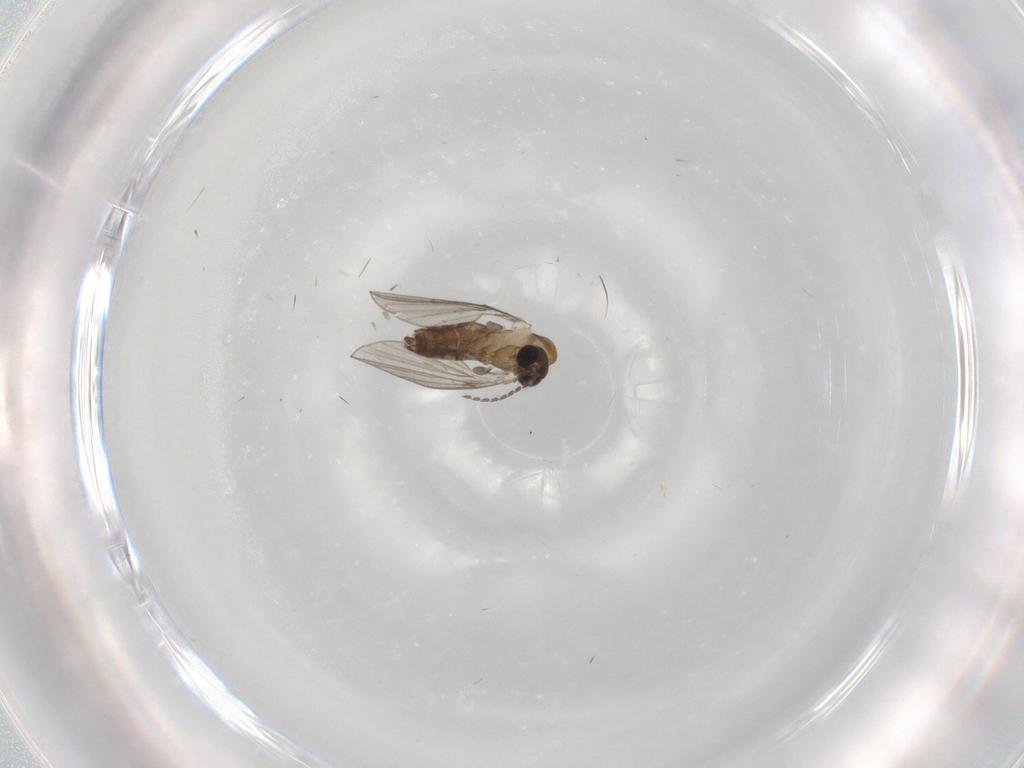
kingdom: Animalia
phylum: Arthropoda
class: Insecta
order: Diptera
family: Psychodidae
